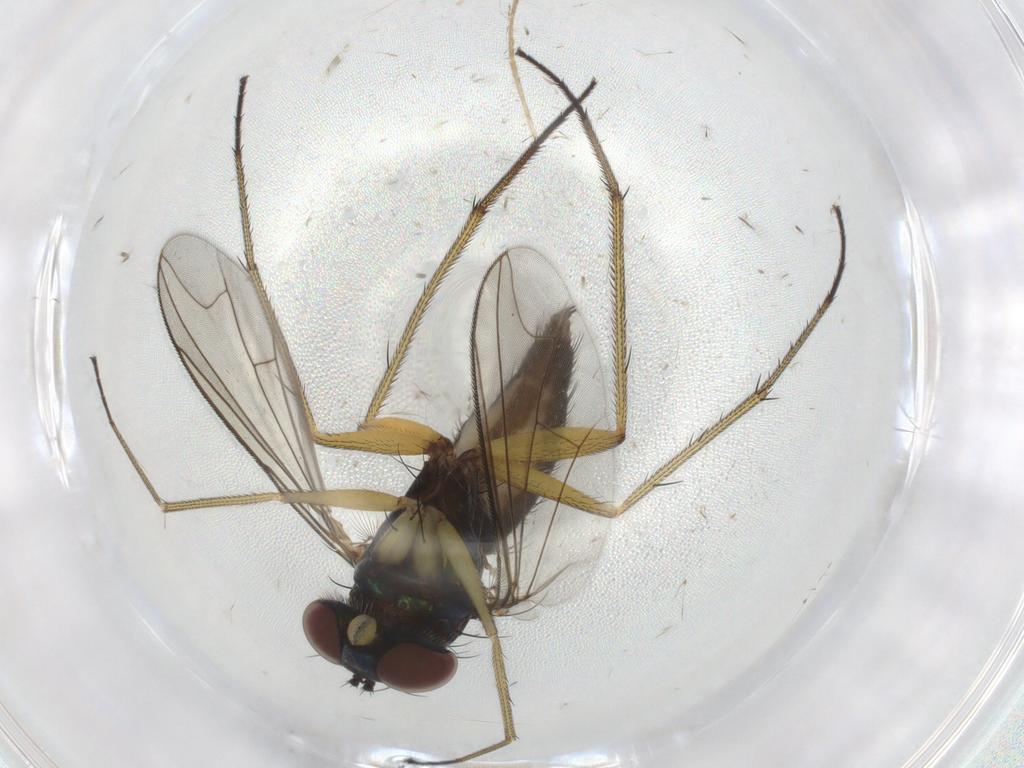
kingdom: Animalia
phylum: Arthropoda
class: Insecta
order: Diptera
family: Dolichopodidae
